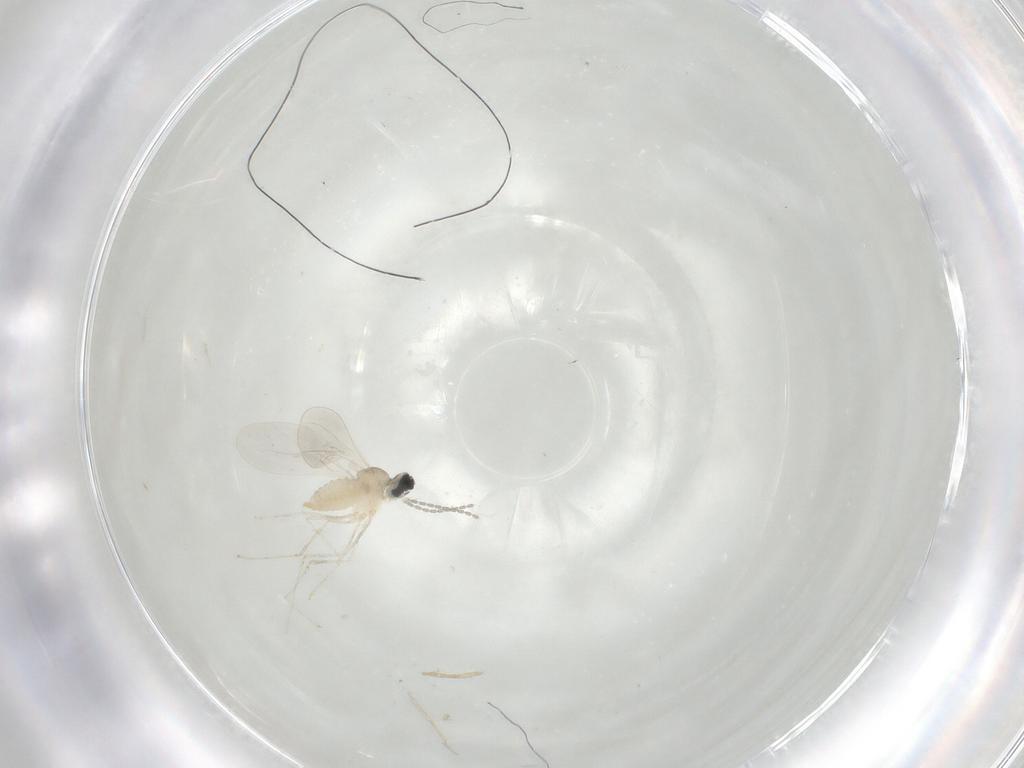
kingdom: Animalia
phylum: Arthropoda
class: Insecta
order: Diptera
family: Cecidomyiidae
